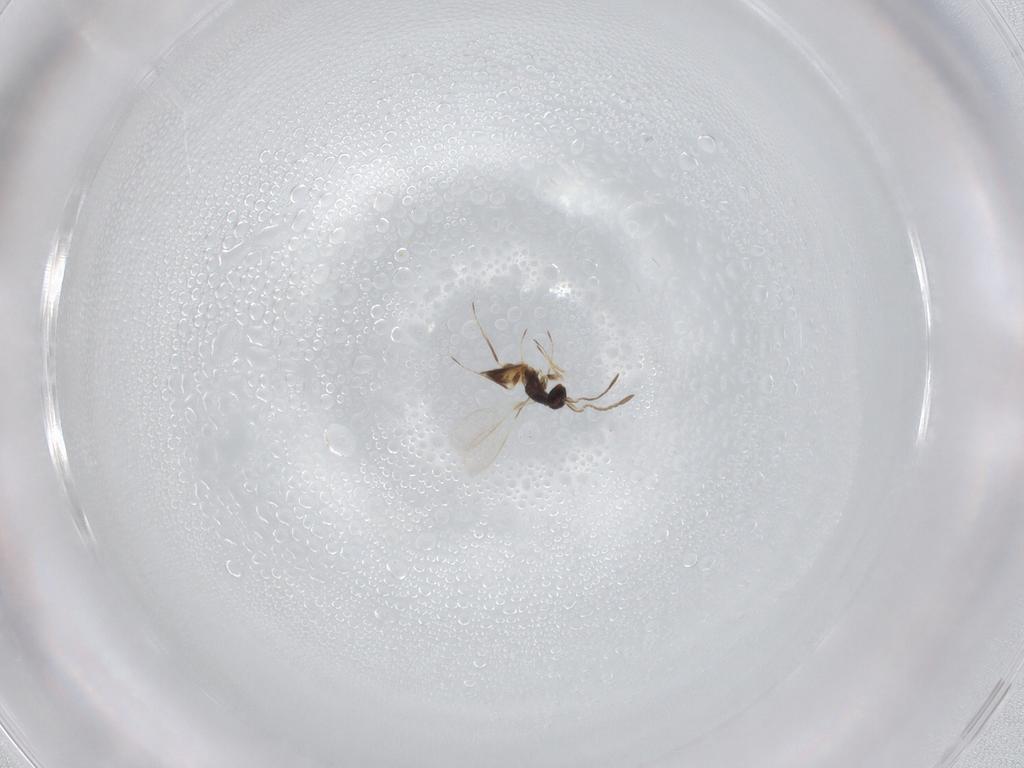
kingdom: Animalia
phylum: Arthropoda
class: Insecta
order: Hymenoptera
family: Mymaridae
